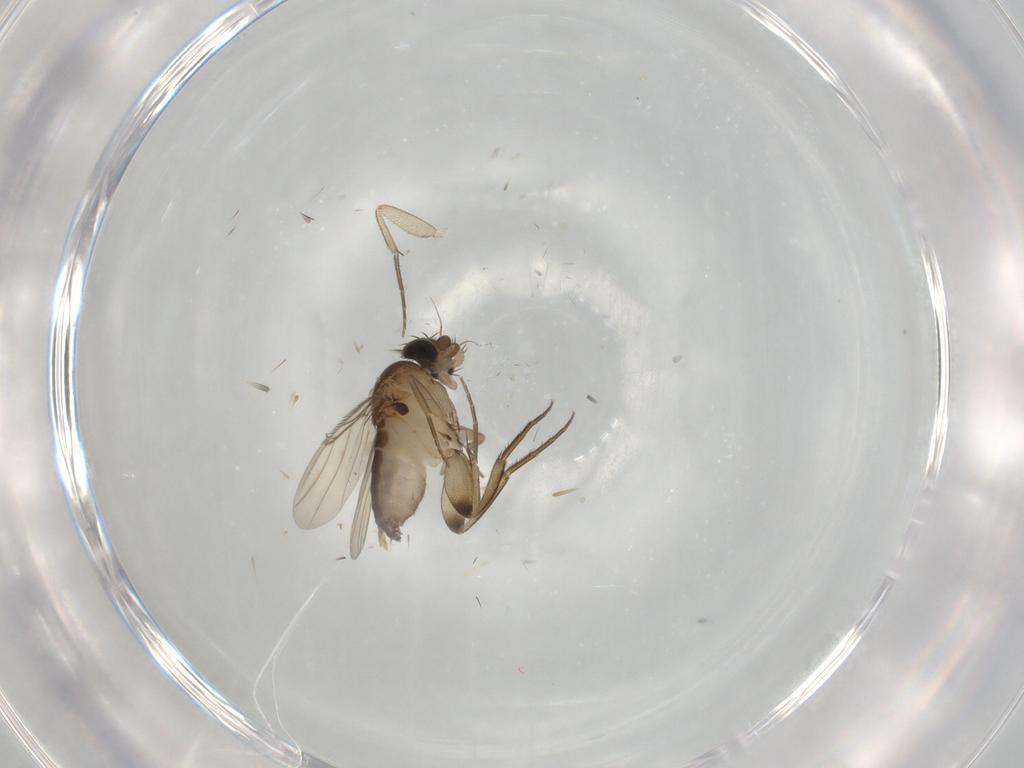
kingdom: Animalia
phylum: Arthropoda
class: Insecta
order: Diptera
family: Phoridae
